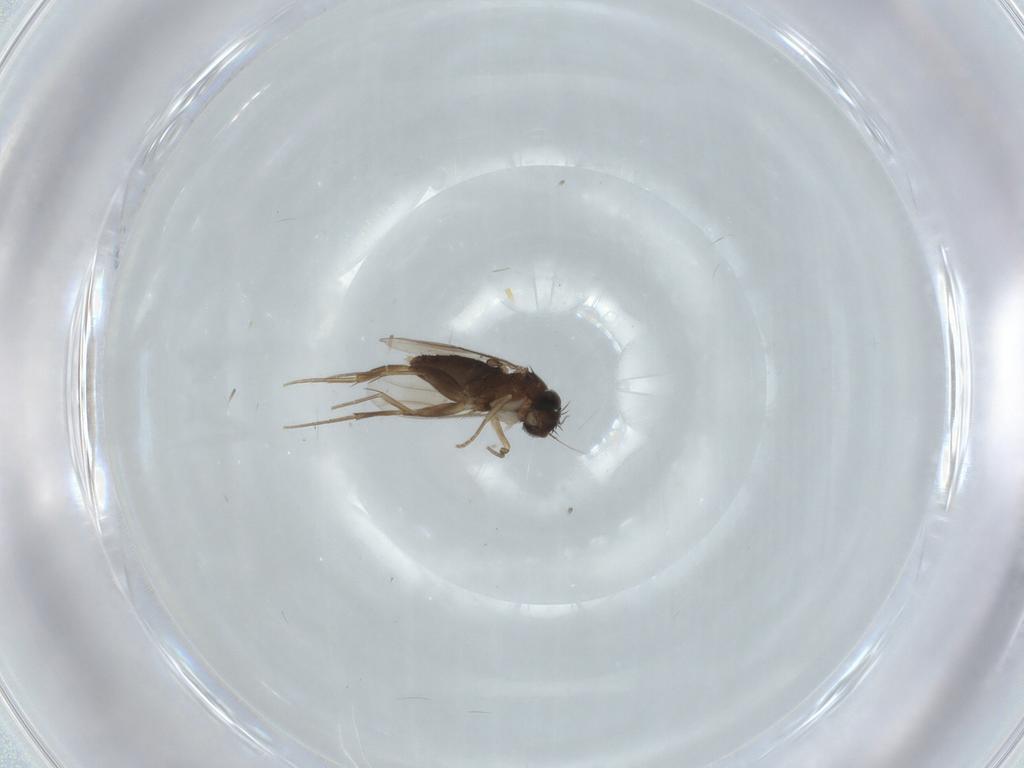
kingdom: Animalia
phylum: Arthropoda
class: Insecta
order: Diptera
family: Phoridae
